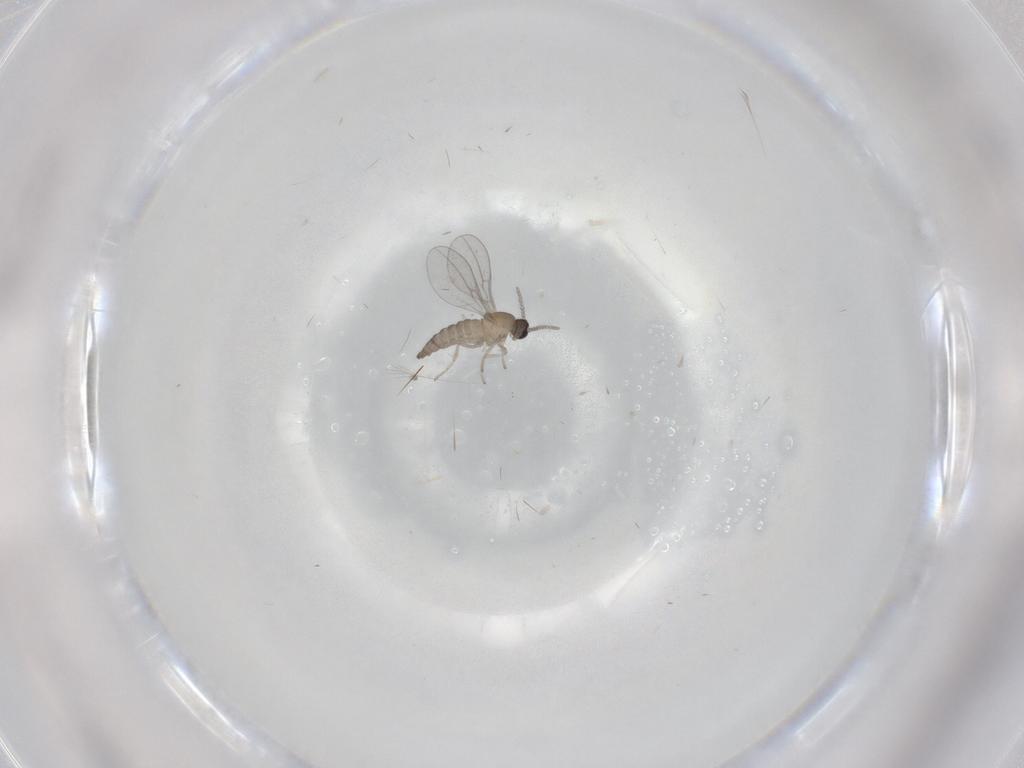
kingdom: Animalia
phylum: Arthropoda
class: Insecta
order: Diptera
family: Cecidomyiidae
